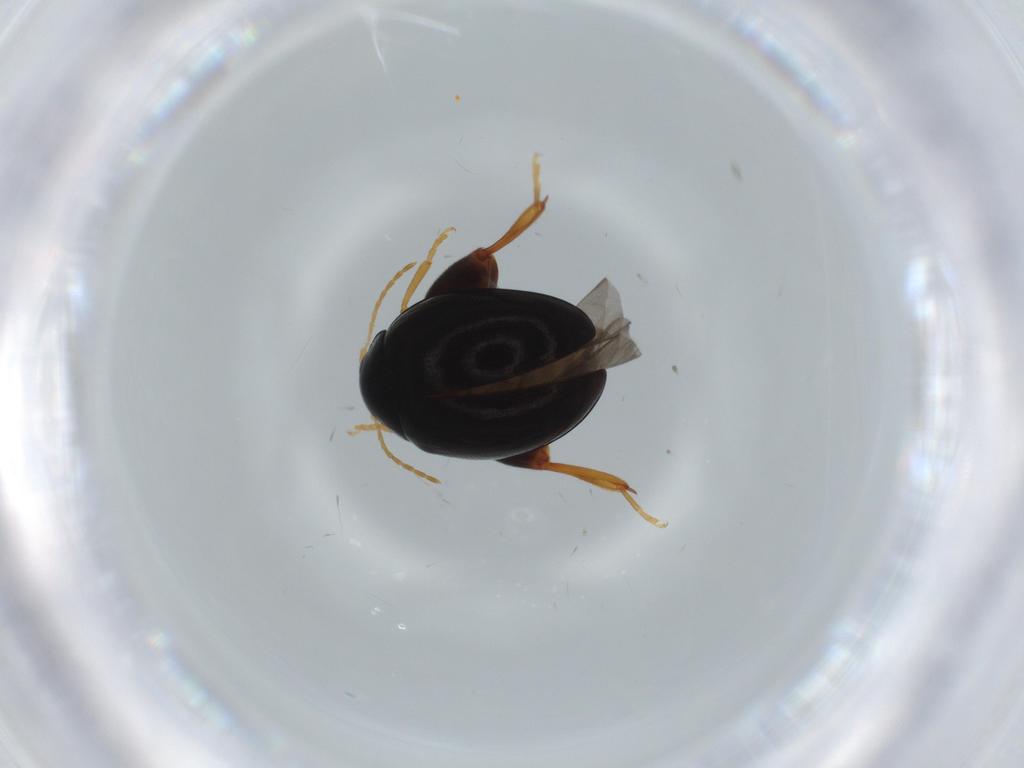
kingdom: Animalia
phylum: Arthropoda
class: Insecta
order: Coleoptera
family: Chrysomelidae
